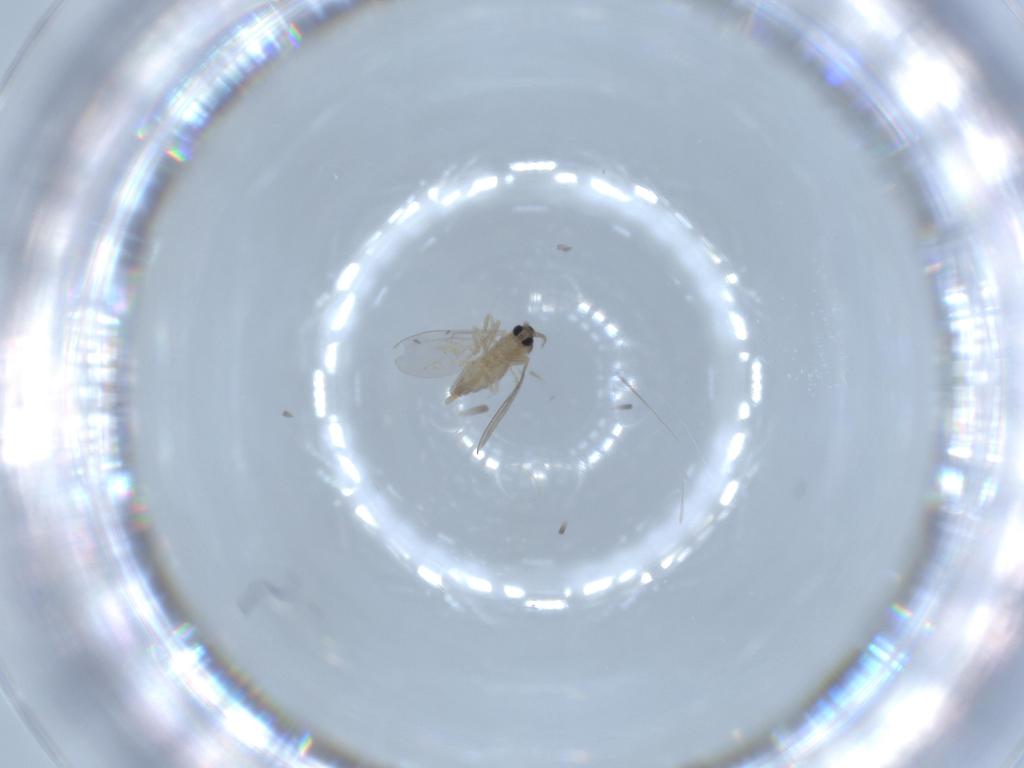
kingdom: Animalia
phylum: Arthropoda
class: Insecta
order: Diptera
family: Cecidomyiidae
